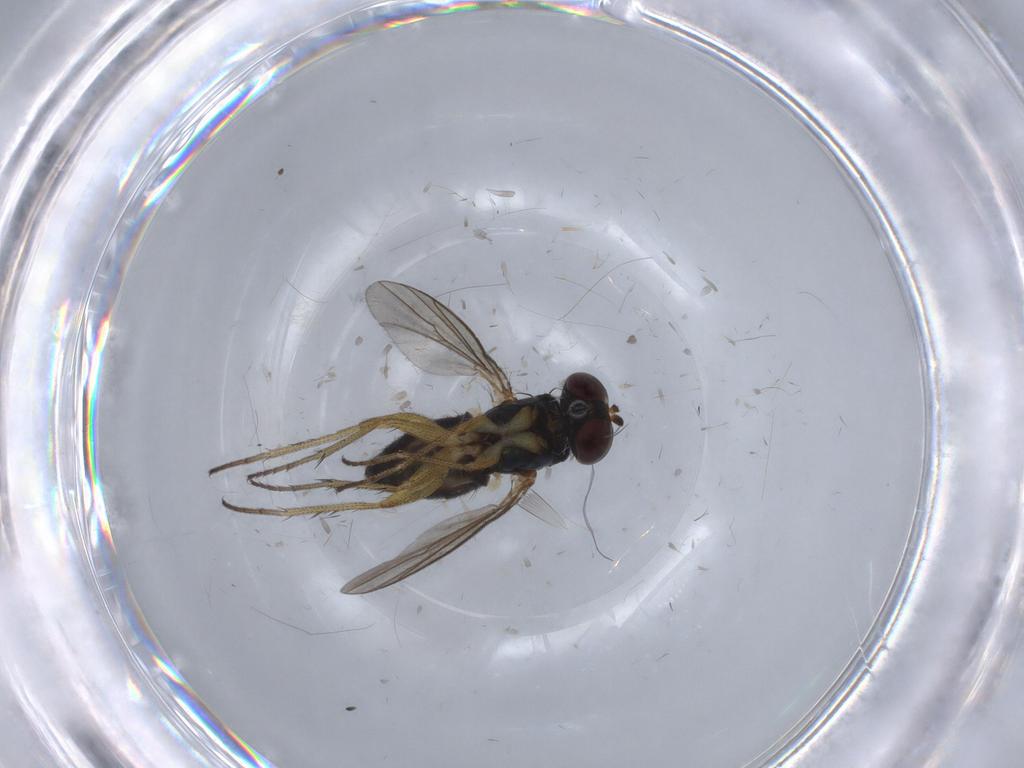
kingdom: Animalia
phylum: Arthropoda
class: Insecta
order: Diptera
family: Dolichopodidae
